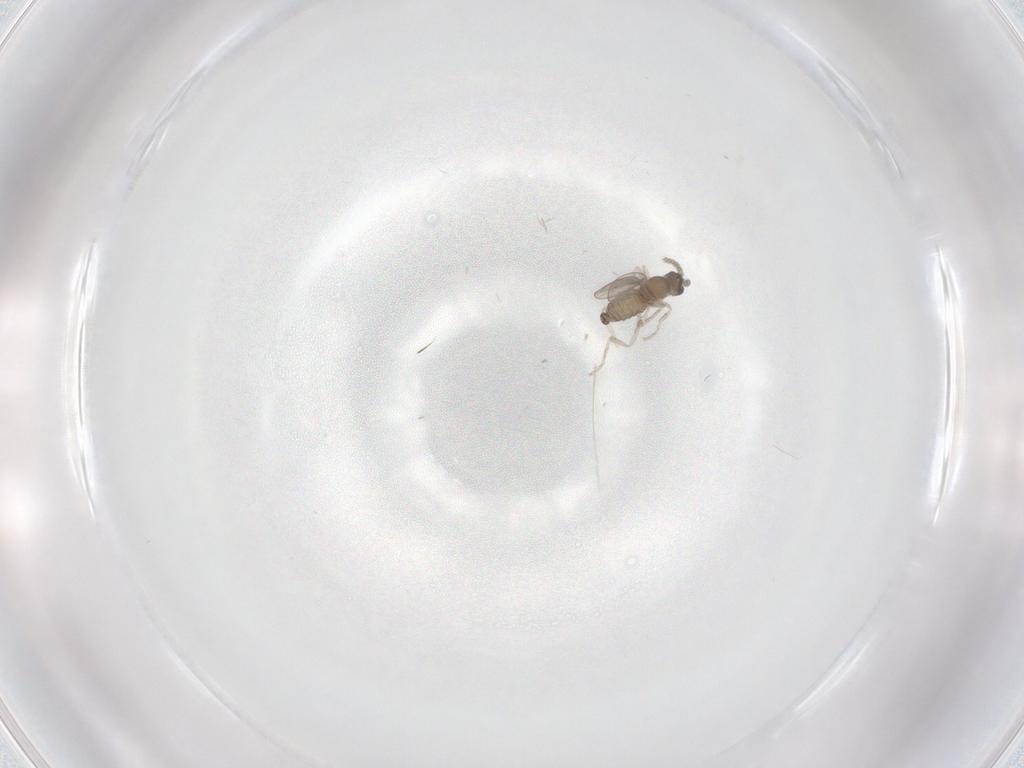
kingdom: Animalia
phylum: Arthropoda
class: Insecta
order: Diptera
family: Cecidomyiidae
